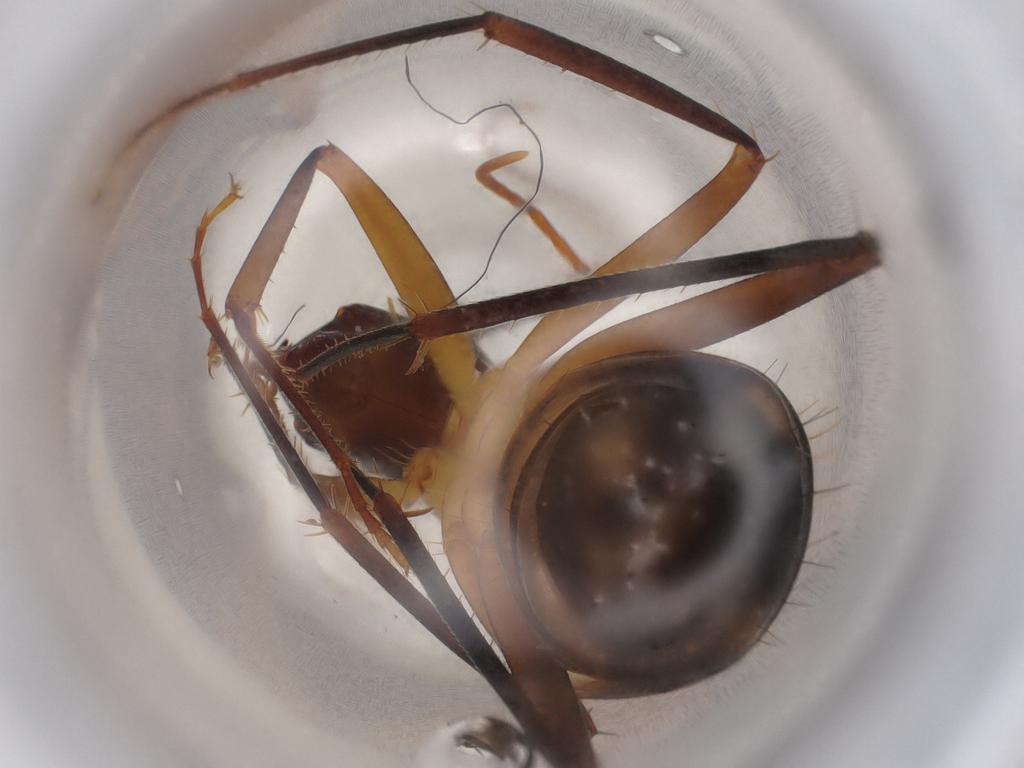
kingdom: Animalia
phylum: Arthropoda
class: Insecta
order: Hymenoptera
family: Formicidae
